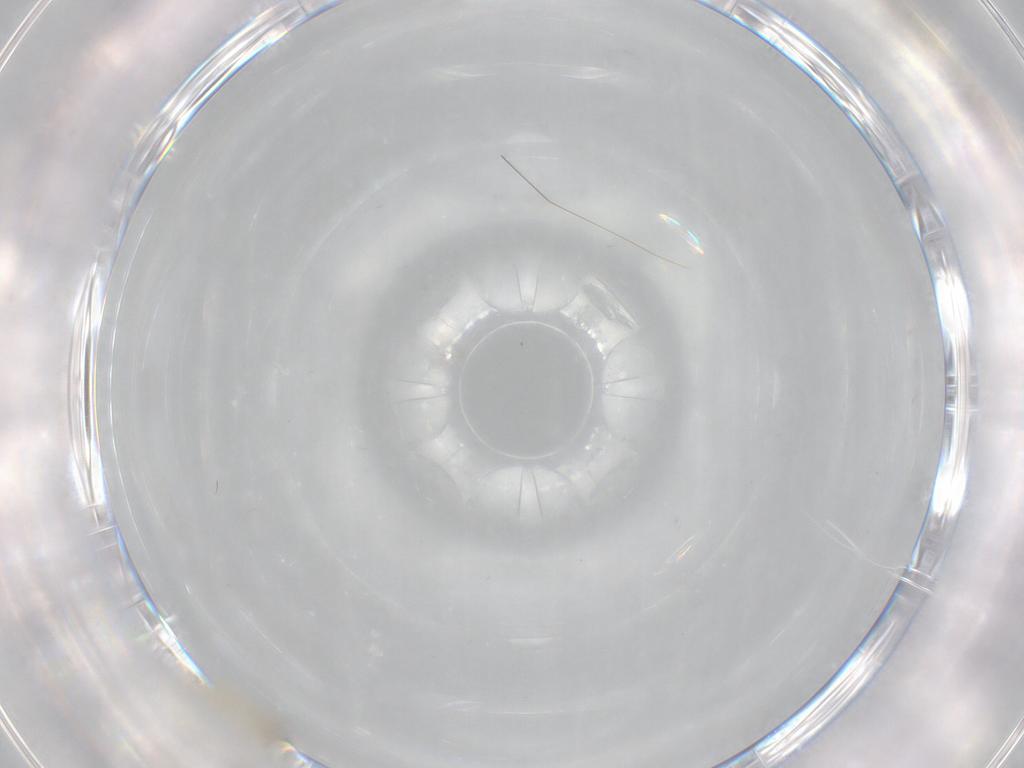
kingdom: Animalia
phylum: Arthropoda
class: Insecta
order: Diptera
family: Cecidomyiidae
